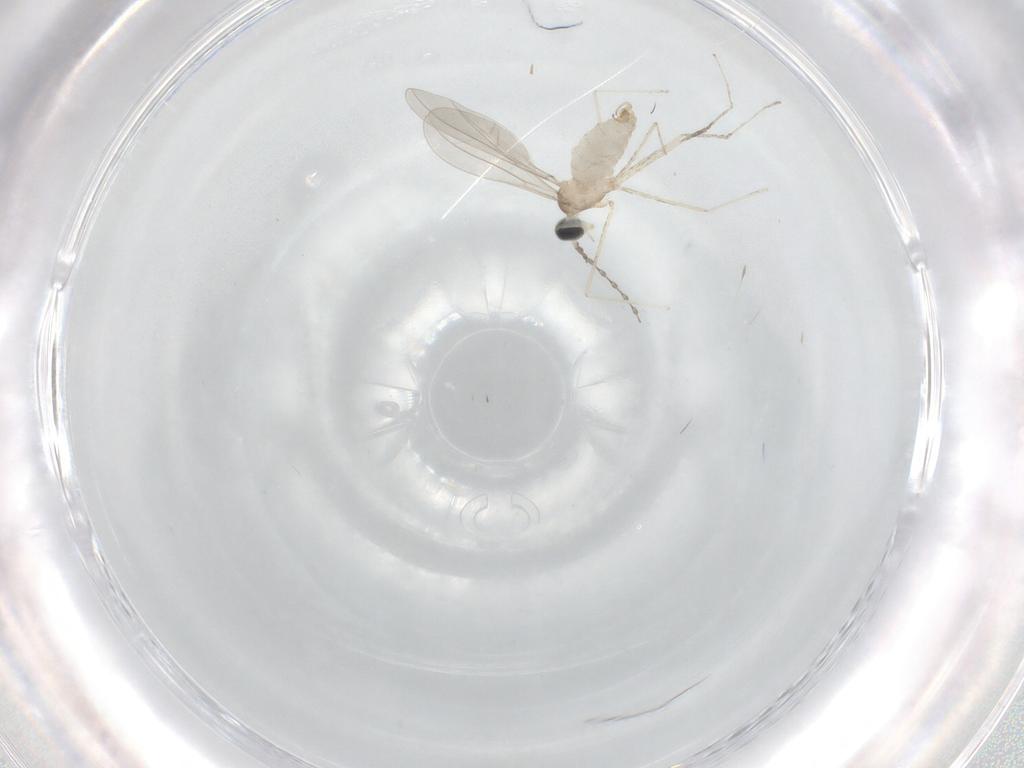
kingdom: Animalia
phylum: Arthropoda
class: Insecta
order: Diptera
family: Cecidomyiidae
